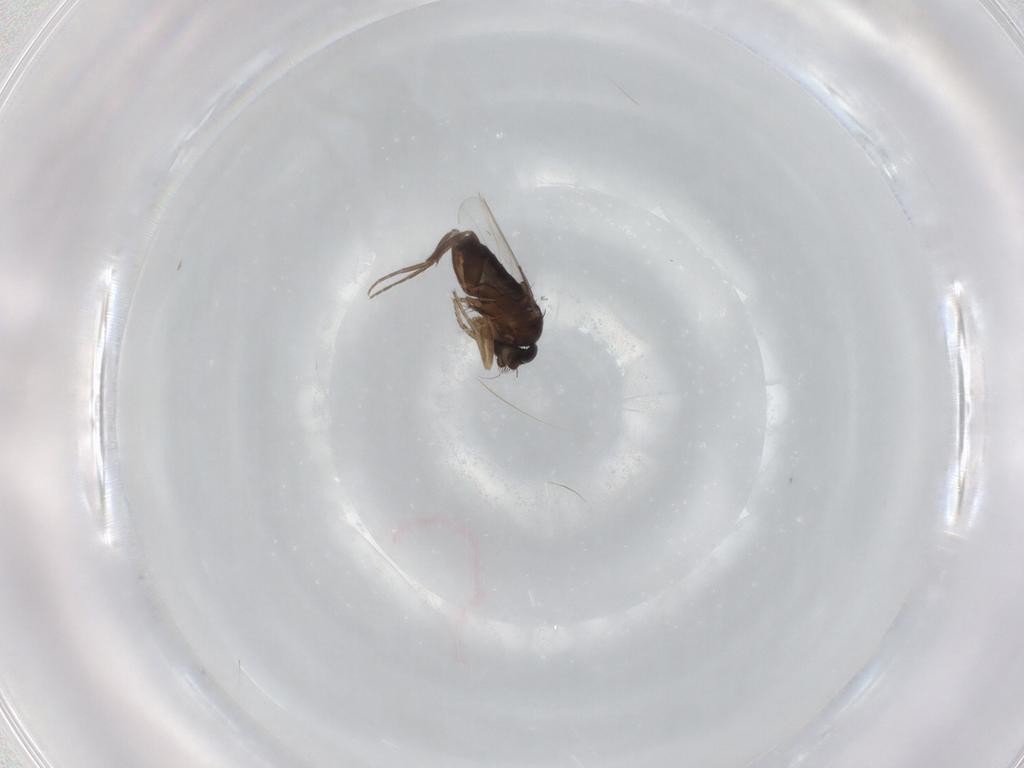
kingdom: Animalia
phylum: Arthropoda
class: Insecta
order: Diptera
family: Phoridae
